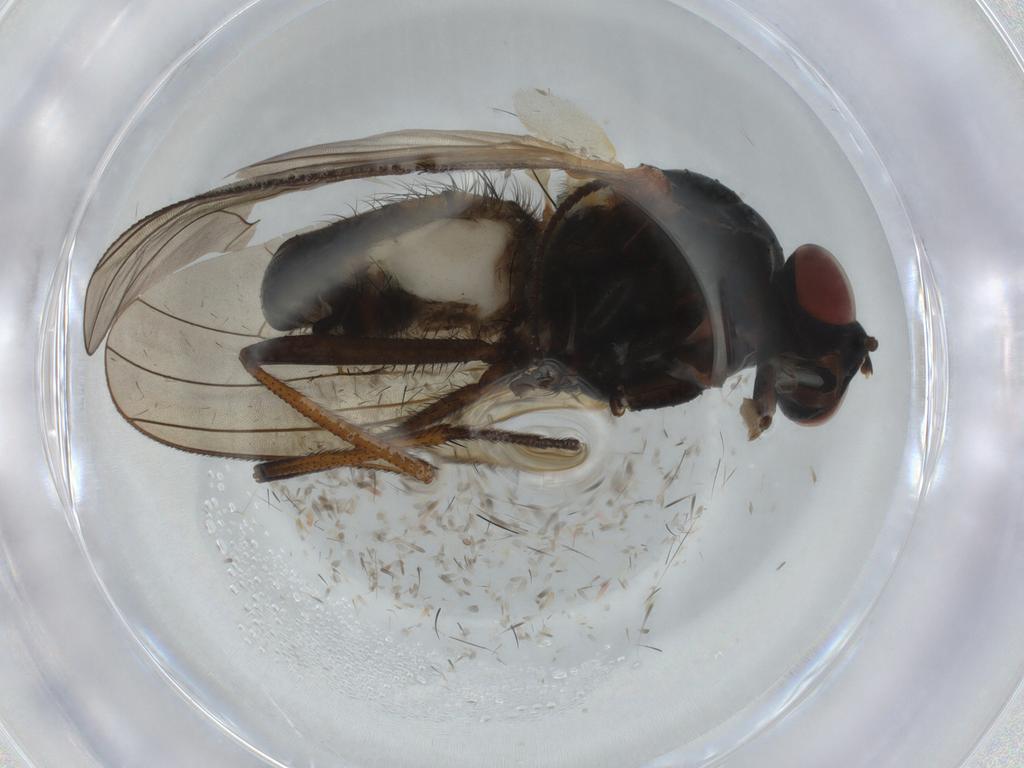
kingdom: Animalia
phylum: Arthropoda
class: Insecta
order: Diptera
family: Anthomyiidae
